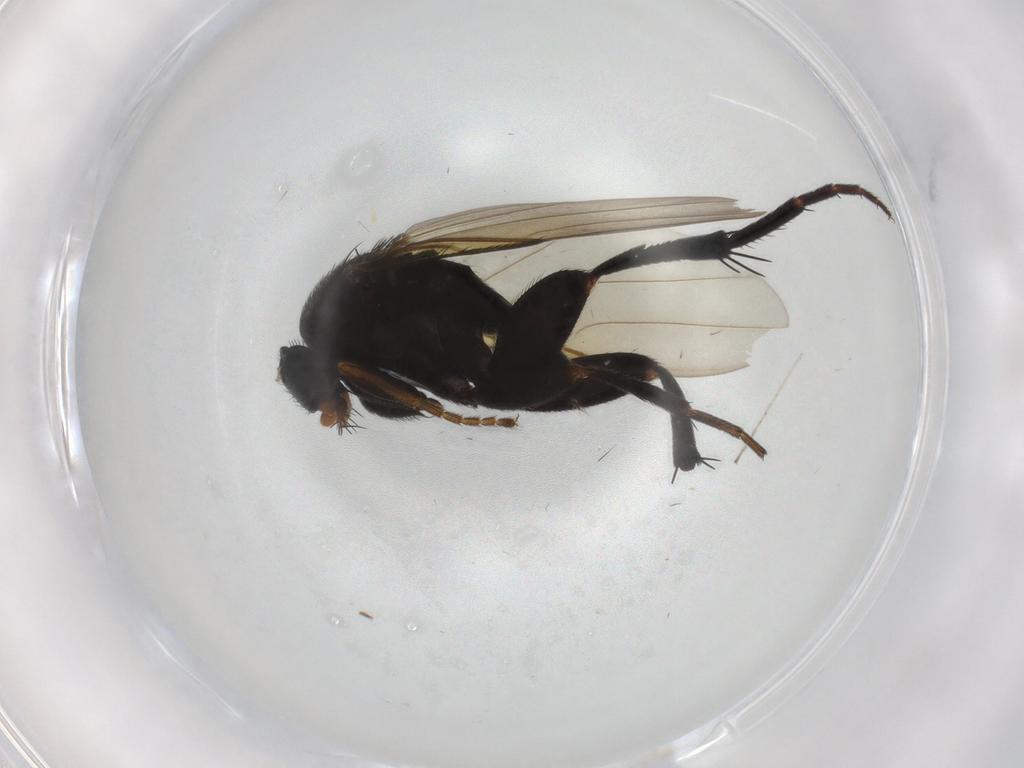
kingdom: Animalia
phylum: Arthropoda
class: Insecta
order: Diptera
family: Phoridae
